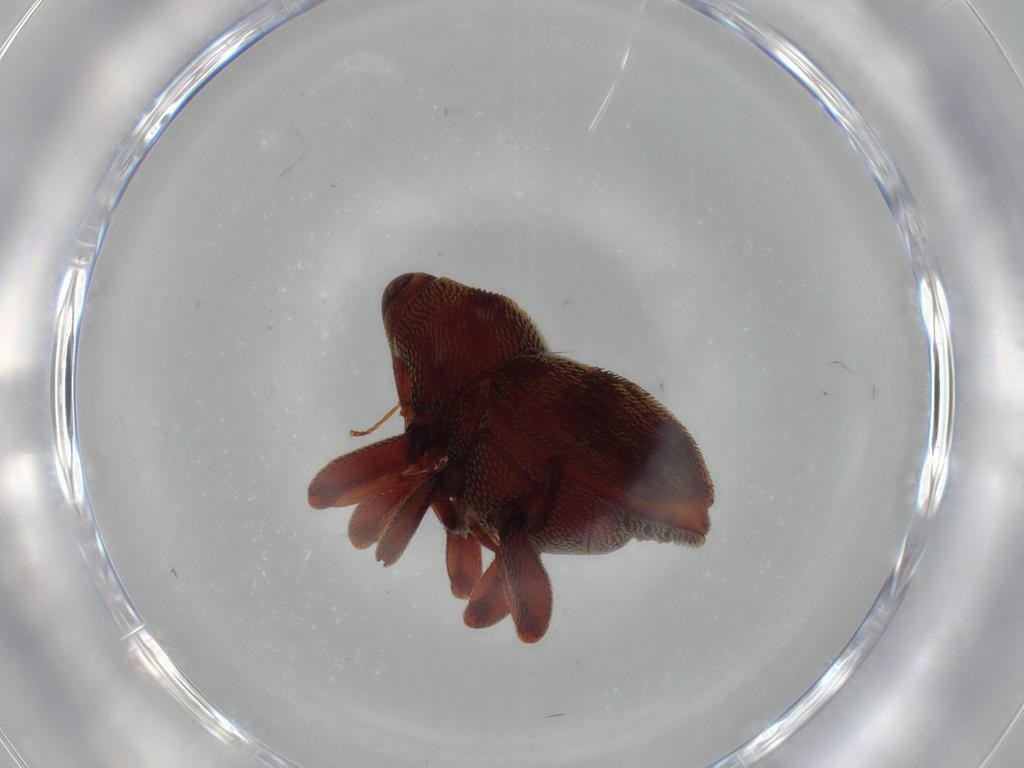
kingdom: Animalia
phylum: Arthropoda
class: Insecta
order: Coleoptera
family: Curculionidae
